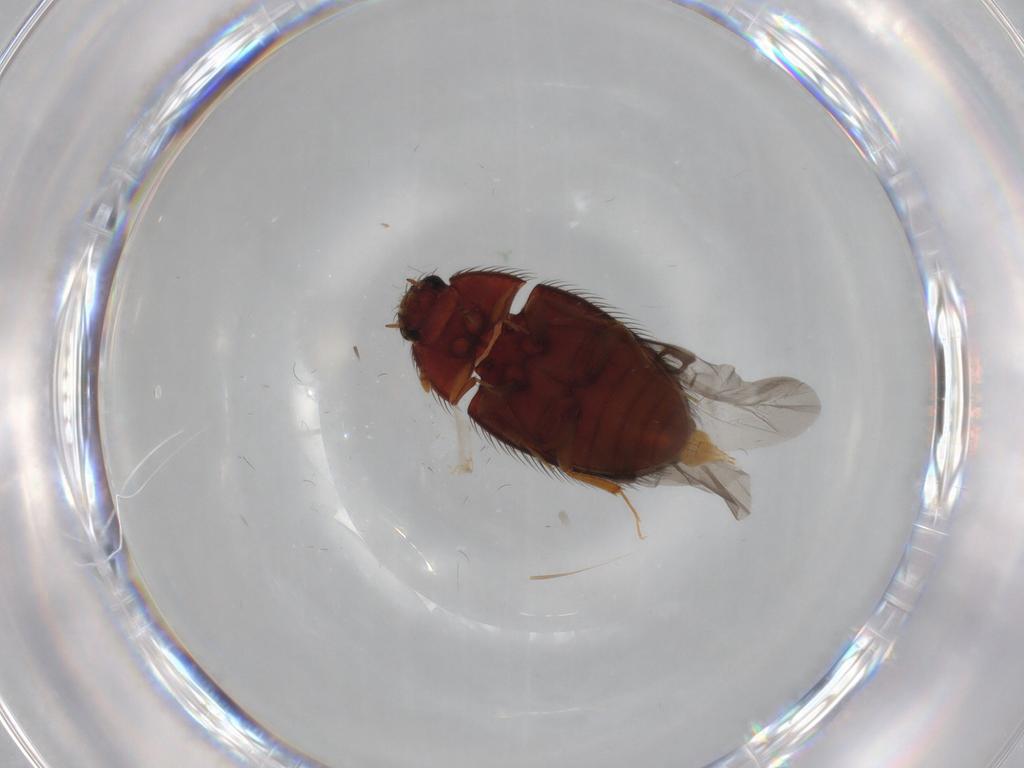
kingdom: Animalia
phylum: Arthropoda
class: Insecta
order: Coleoptera
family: Biphyllidae
